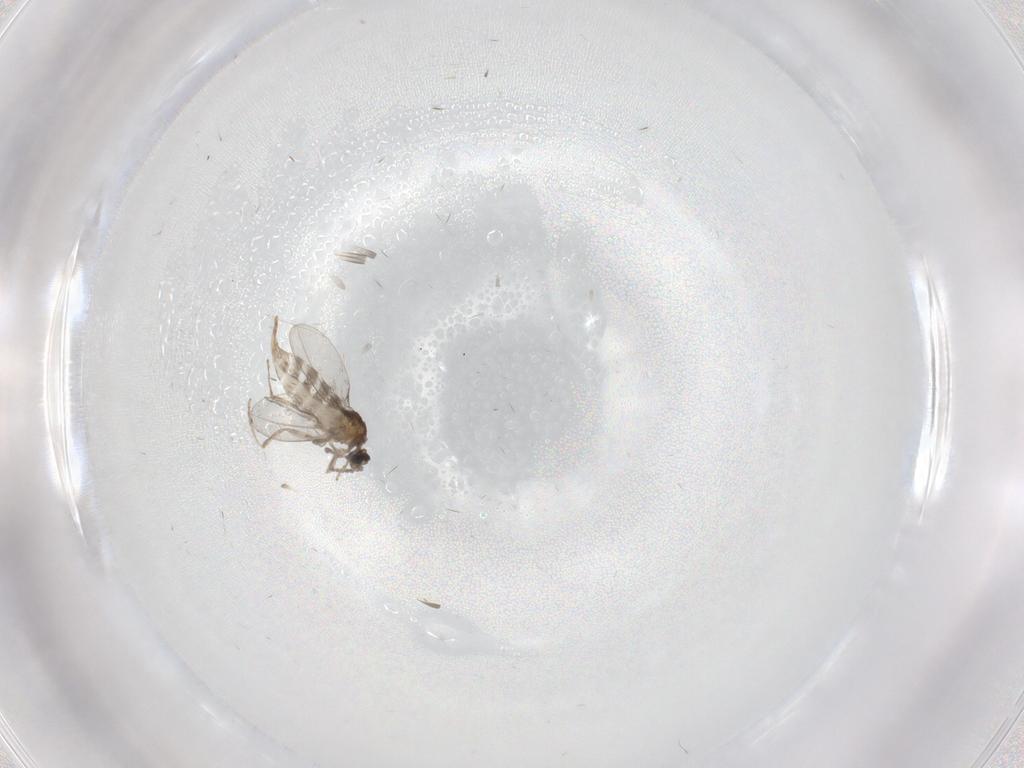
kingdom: Animalia
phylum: Arthropoda
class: Insecta
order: Diptera
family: Cecidomyiidae
